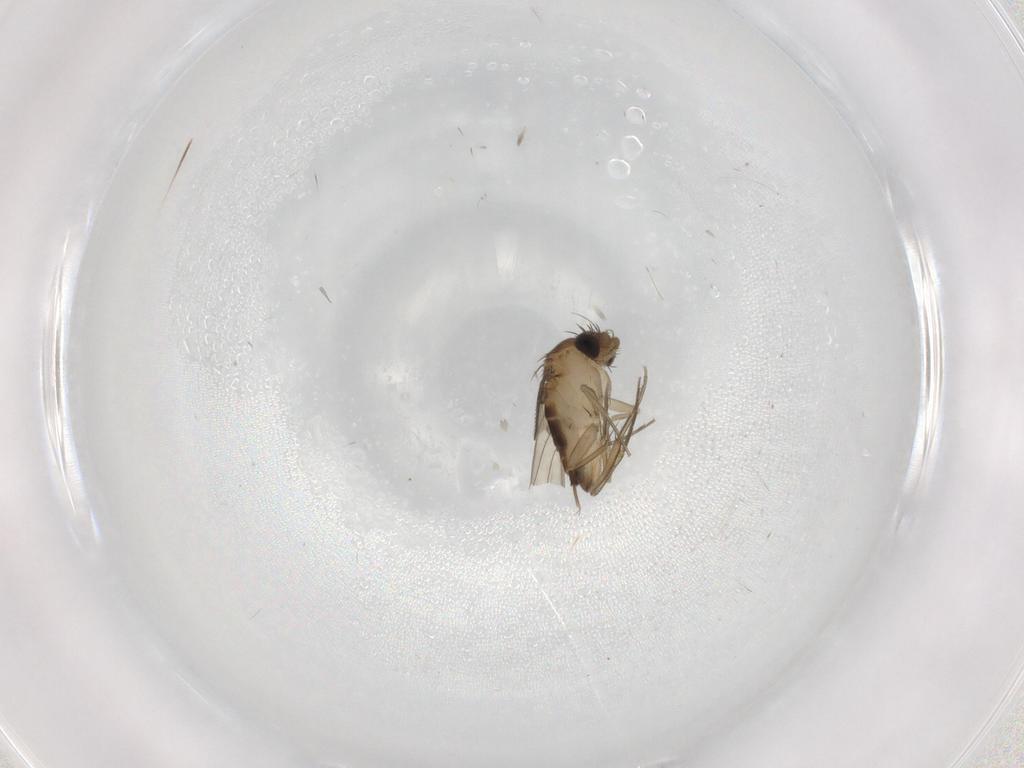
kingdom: Animalia
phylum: Arthropoda
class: Insecta
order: Diptera
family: Phoridae
